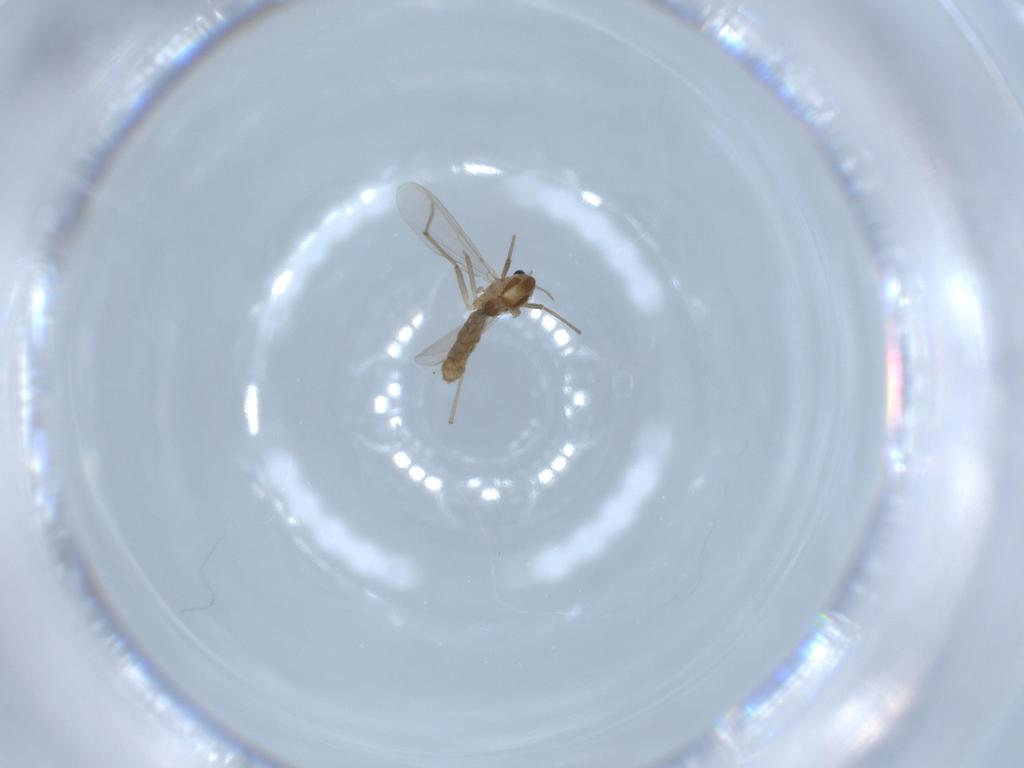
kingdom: Animalia
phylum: Arthropoda
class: Insecta
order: Diptera
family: Chironomidae
